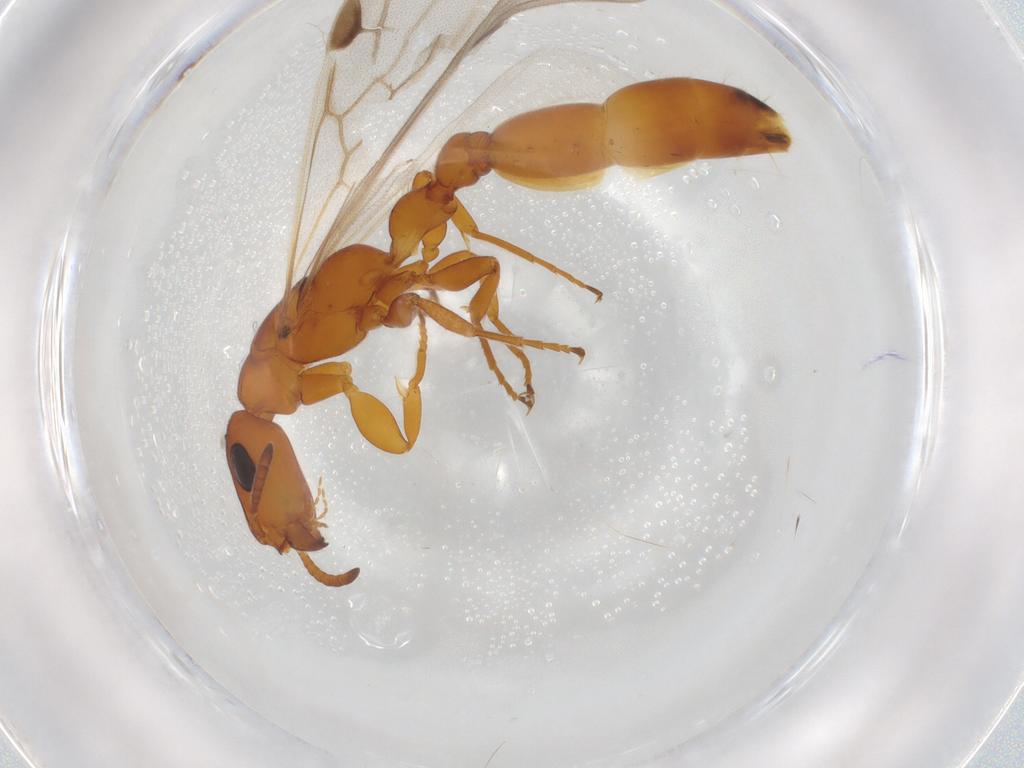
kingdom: Animalia
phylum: Arthropoda
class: Insecta
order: Hymenoptera
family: Formicidae
